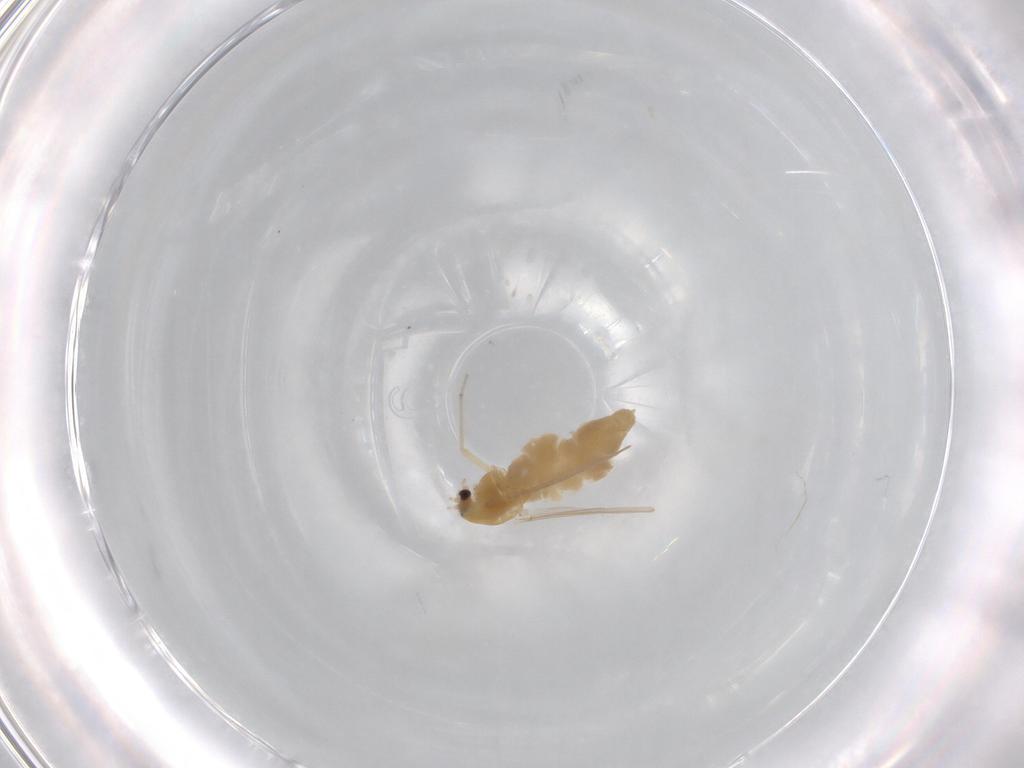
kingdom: Animalia
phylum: Arthropoda
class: Insecta
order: Diptera
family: Chironomidae
